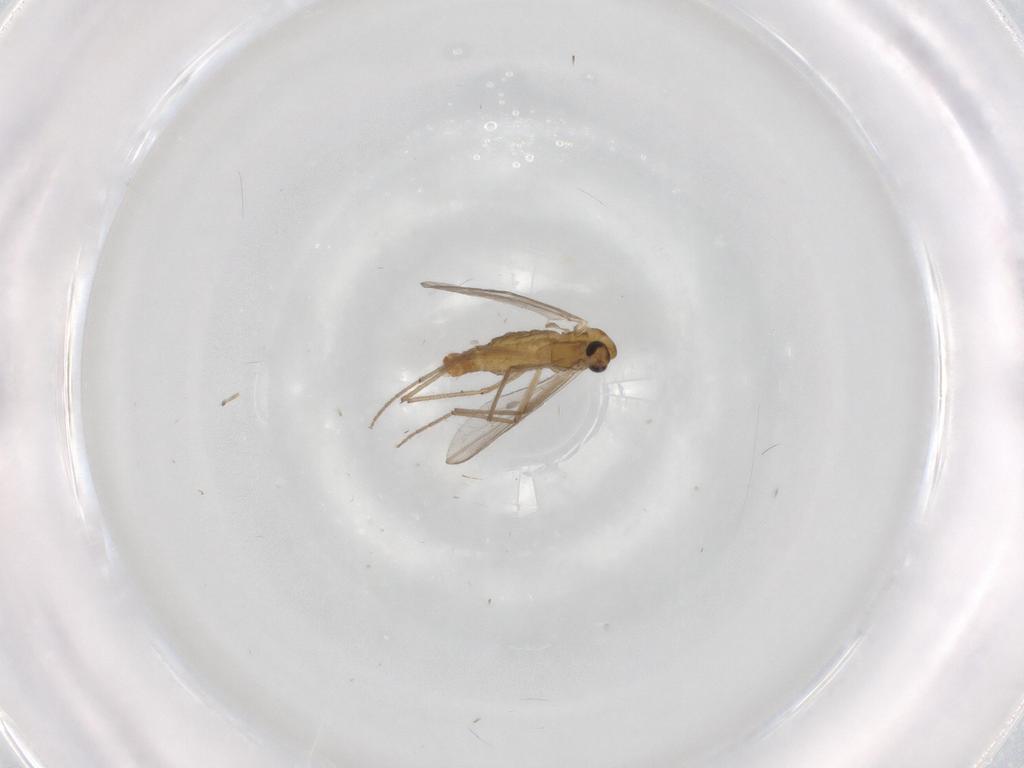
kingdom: Animalia
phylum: Arthropoda
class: Insecta
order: Diptera
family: Chironomidae
